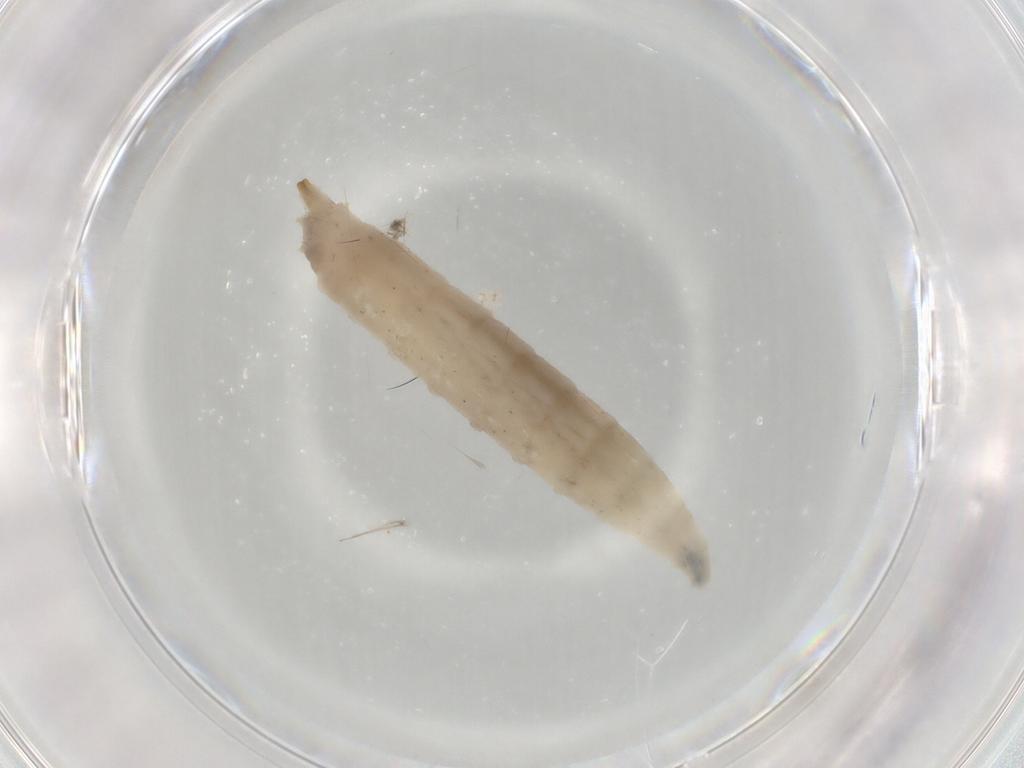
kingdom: Animalia
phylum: Arthropoda
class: Insecta
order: Diptera
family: Drosophilidae
